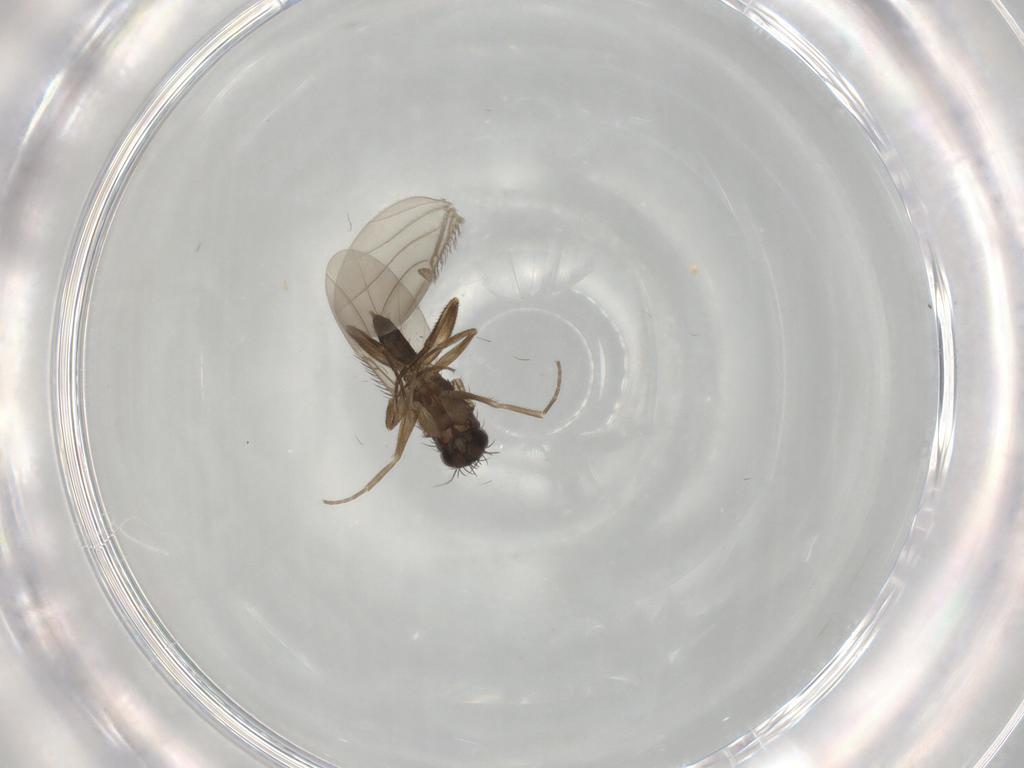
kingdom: Animalia
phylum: Arthropoda
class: Insecta
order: Diptera
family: Phoridae
